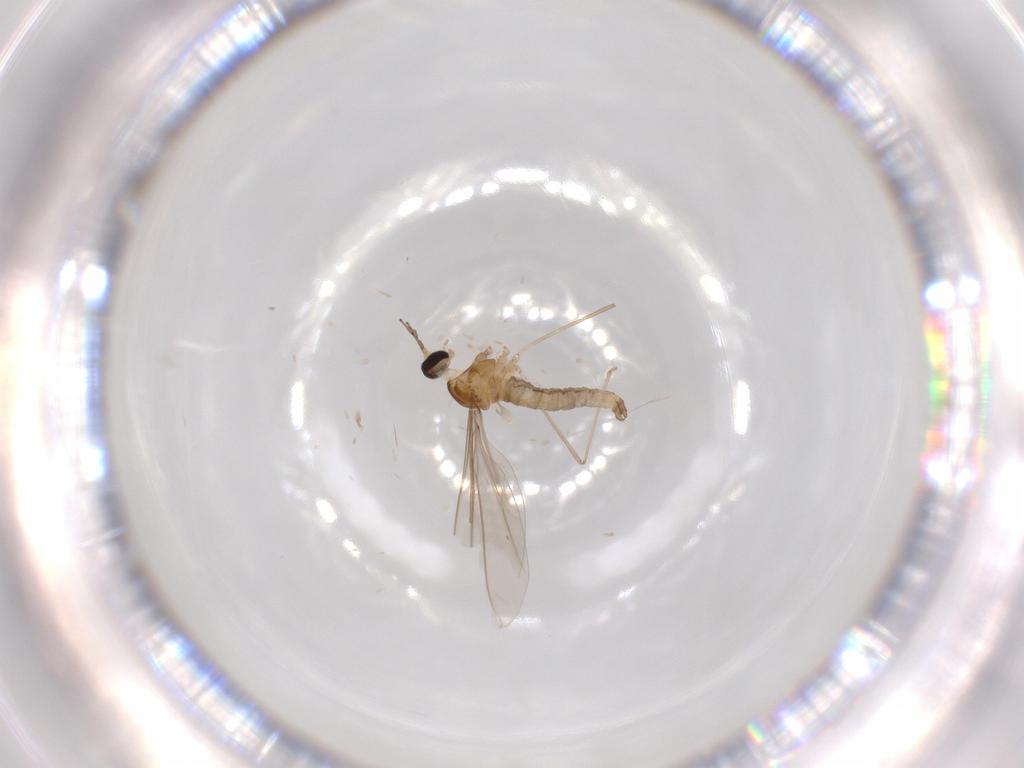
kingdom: Animalia
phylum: Arthropoda
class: Insecta
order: Diptera
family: Cecidomyiidae
